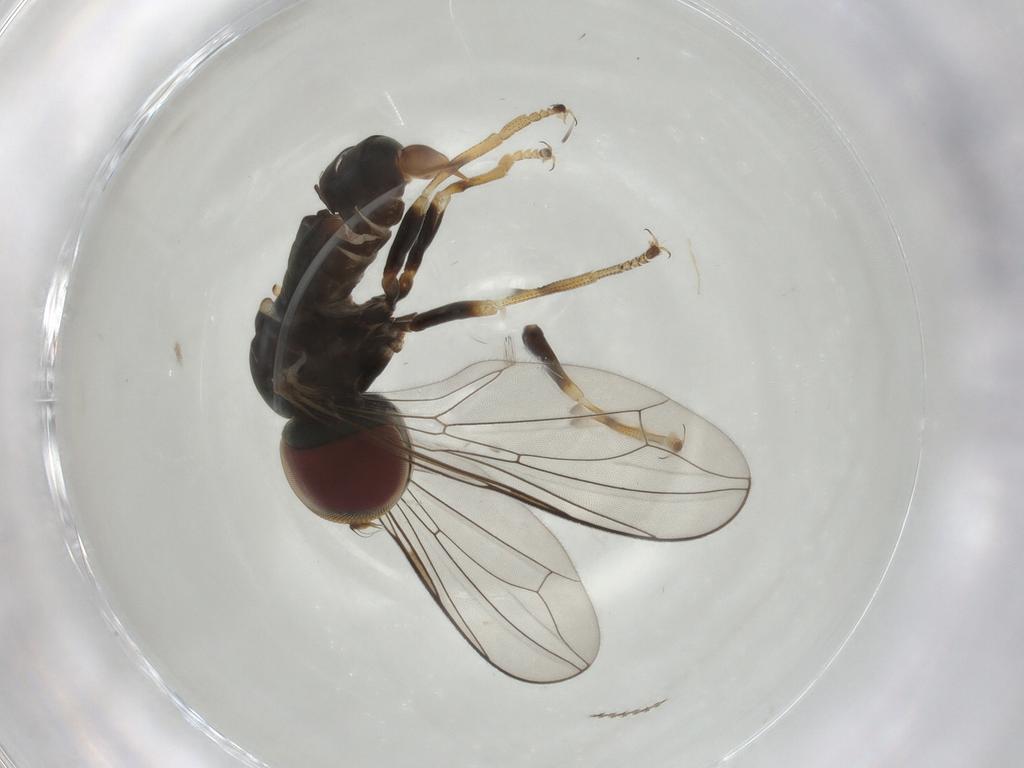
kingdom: Animalia
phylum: Arthropoda
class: Insecta
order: Diptera
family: Pipunculidae
